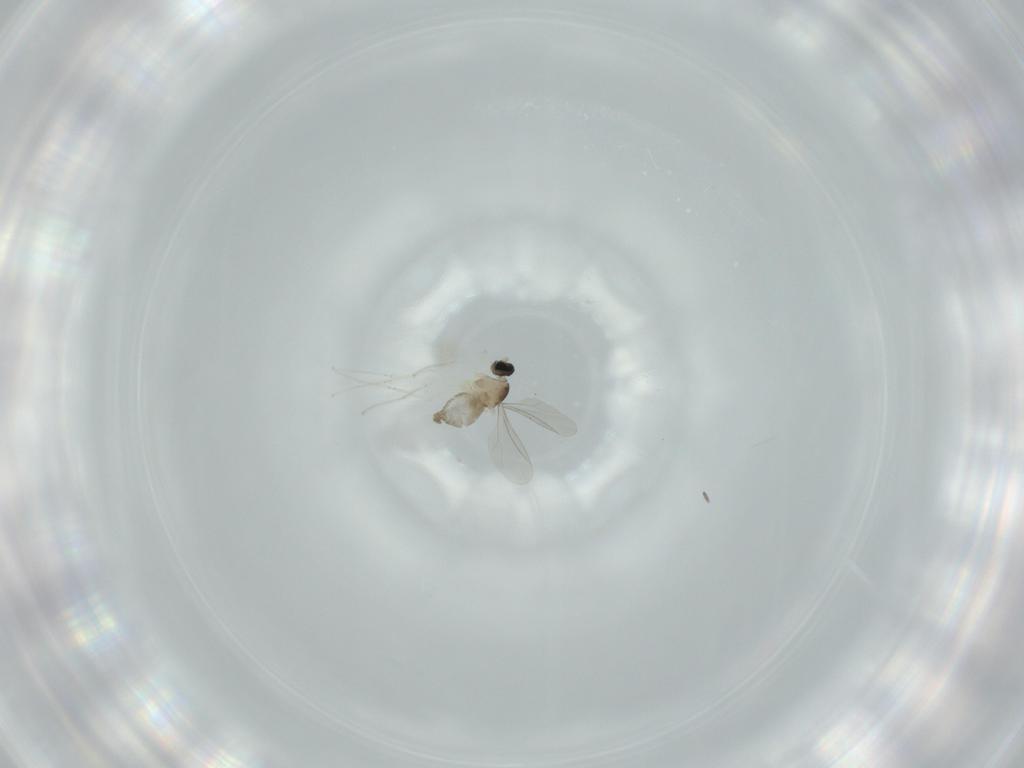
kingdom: Animalia
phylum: Arthropoda
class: Insecta
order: Diptera
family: Cecidomyiidae
